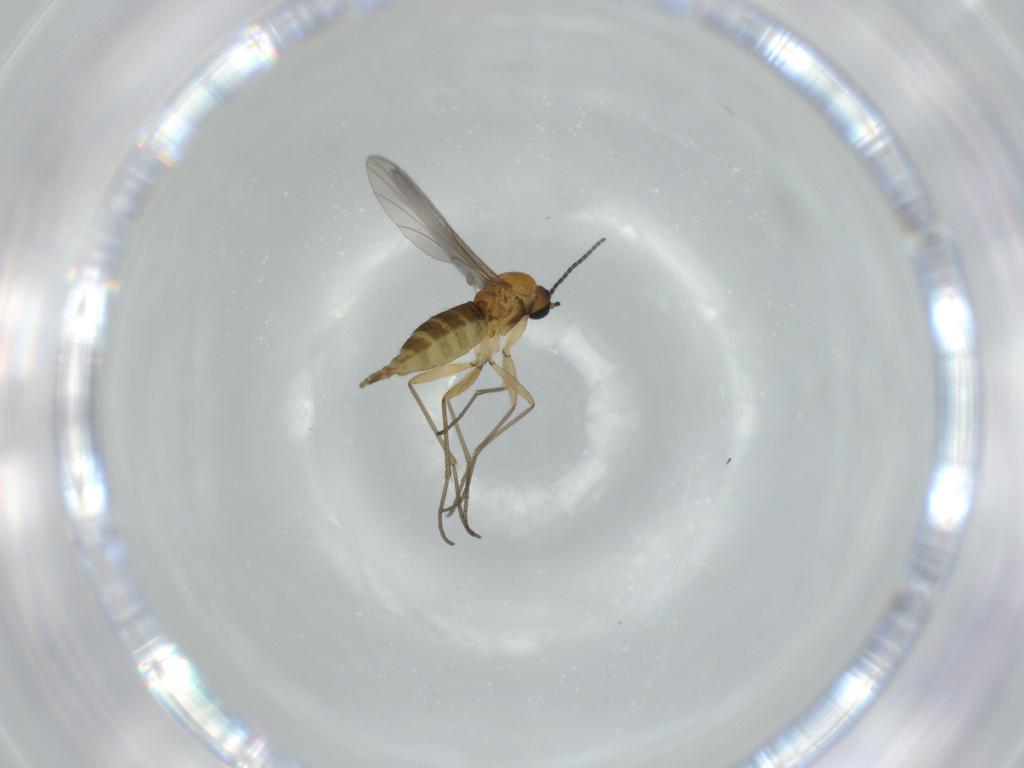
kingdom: Animalia
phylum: Arthropoda
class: Insecta
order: Diptera
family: Sciaridae
